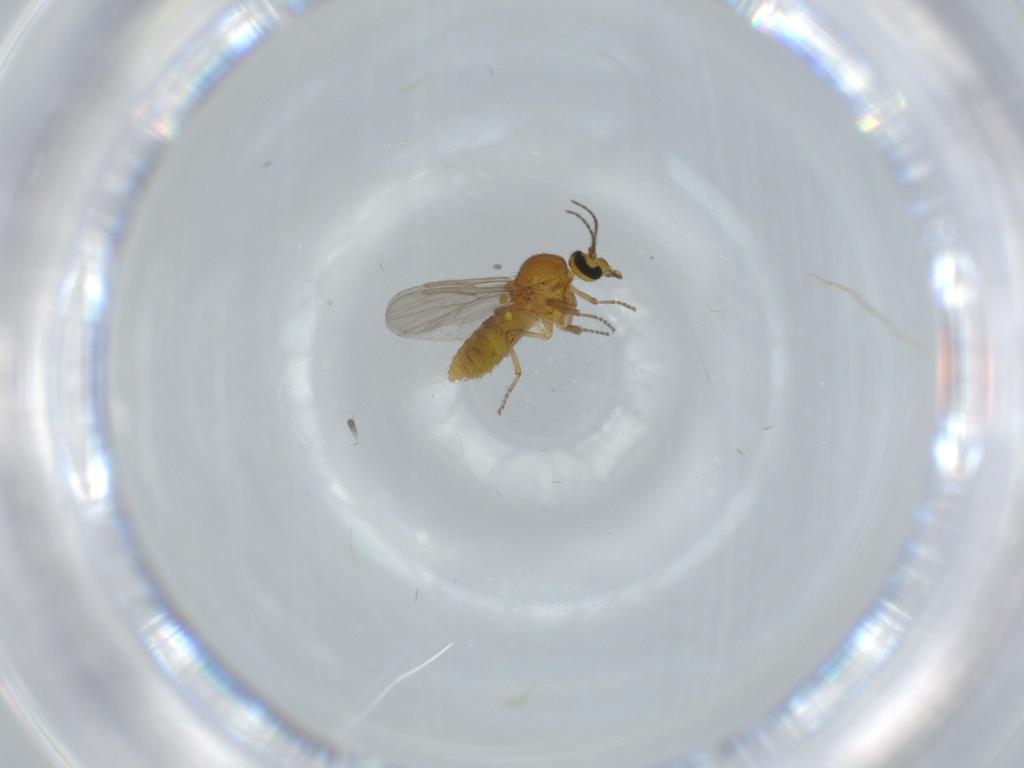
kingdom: Animalia
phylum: Arthropoda
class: Insecta
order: Diptera
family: Ceratopogonidae
